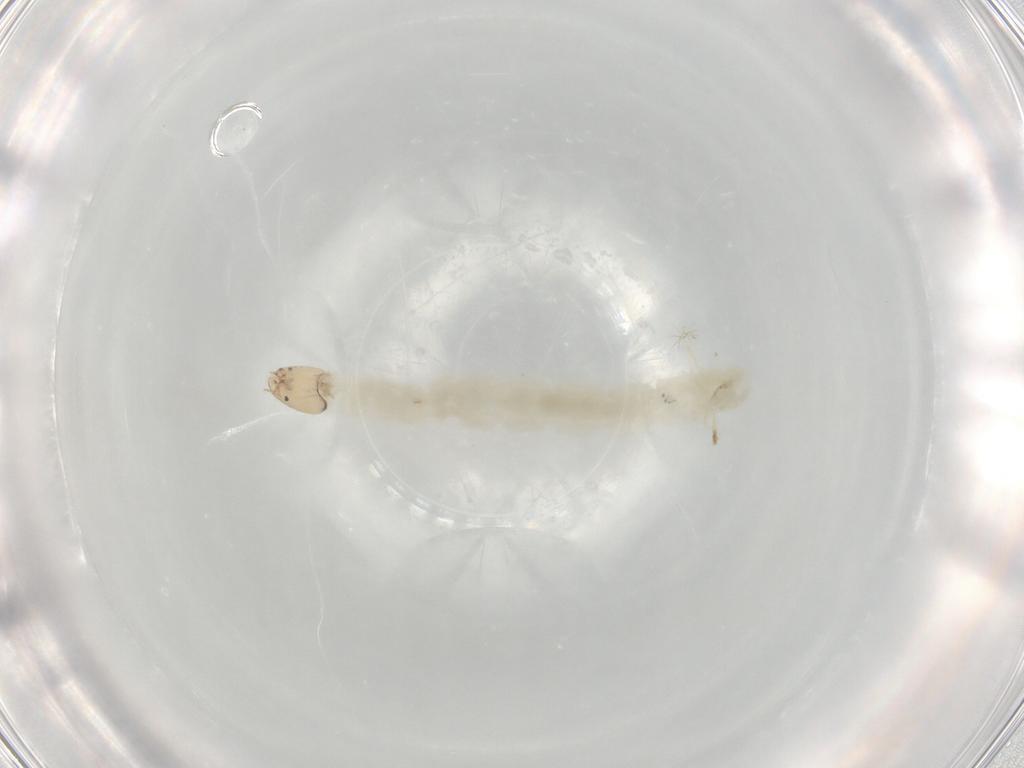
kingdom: Animalia
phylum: Arthropoda
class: Insecta
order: Diptera
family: Chironomidae
